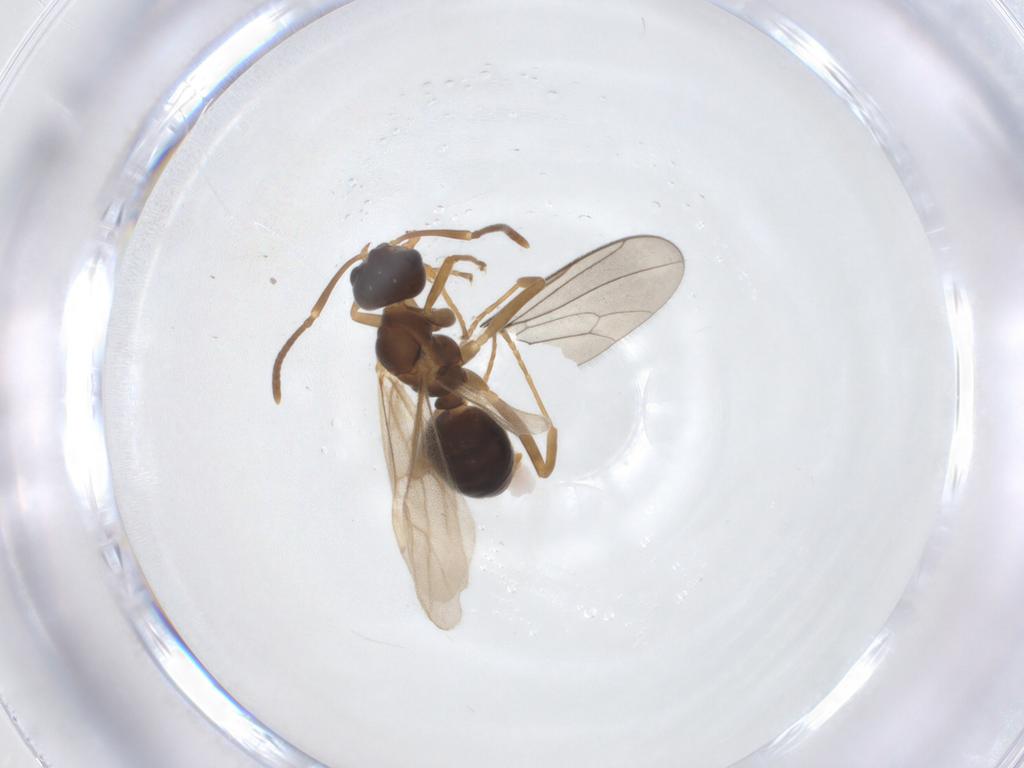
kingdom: Animalia
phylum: Arthropoda
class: Insecta
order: Hymenoptera
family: Formicidae
